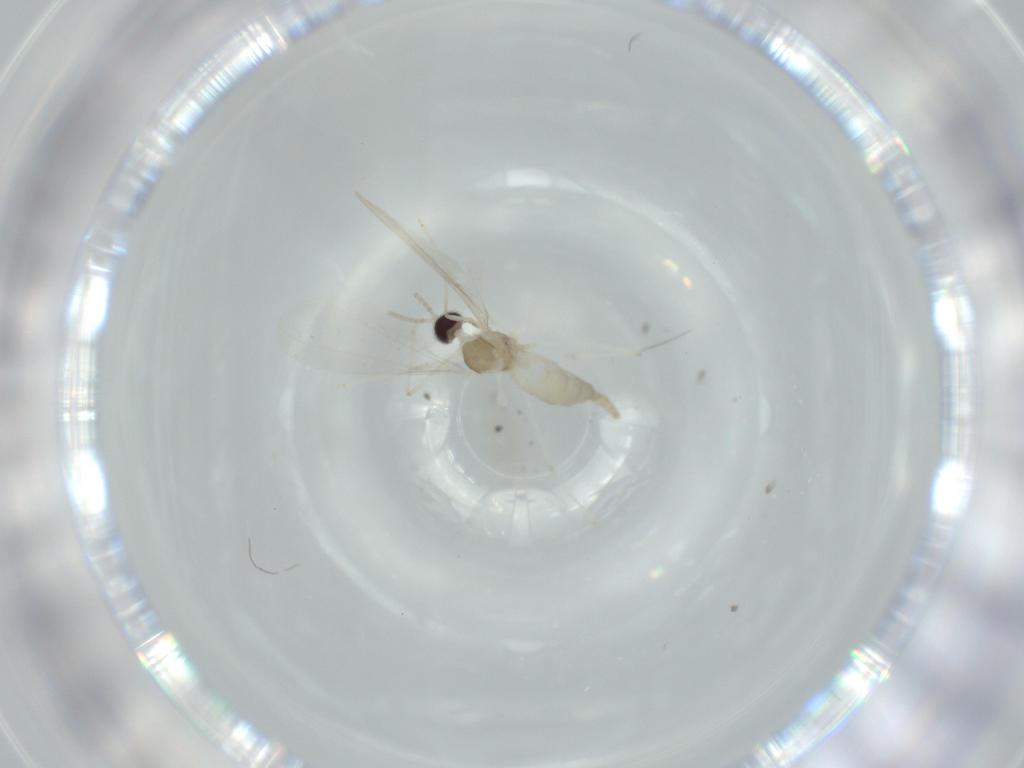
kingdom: Animalia
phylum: Arthropoda
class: Insecta
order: Diptera
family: Cecidomyiidae
